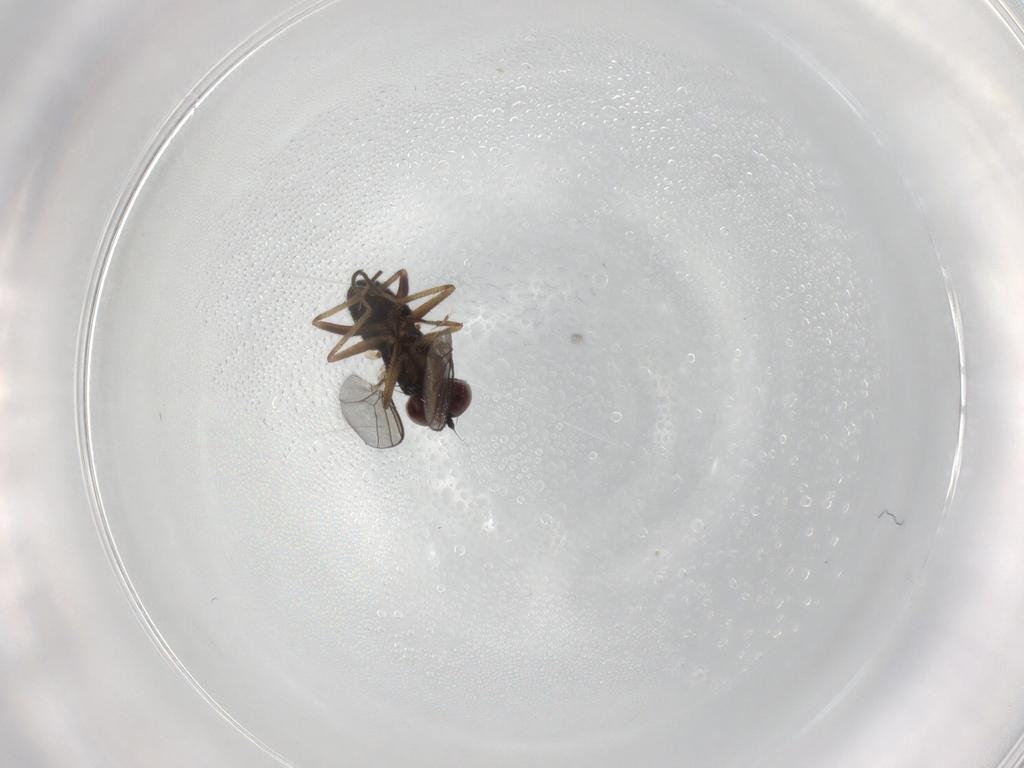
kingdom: Animalia
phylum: Arthropoda
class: Insecta
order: Diptera
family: Dolichopodidae
